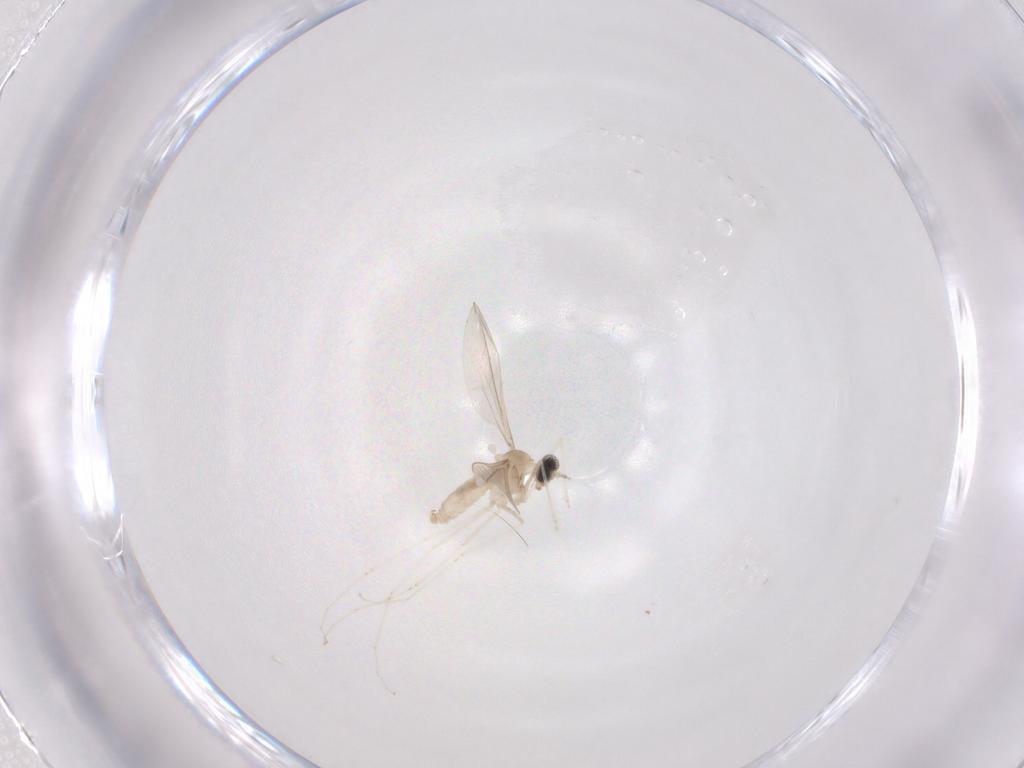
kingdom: Animalia
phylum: Arthropoda
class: Insecta
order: Diptera
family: Cecidomyiidae
